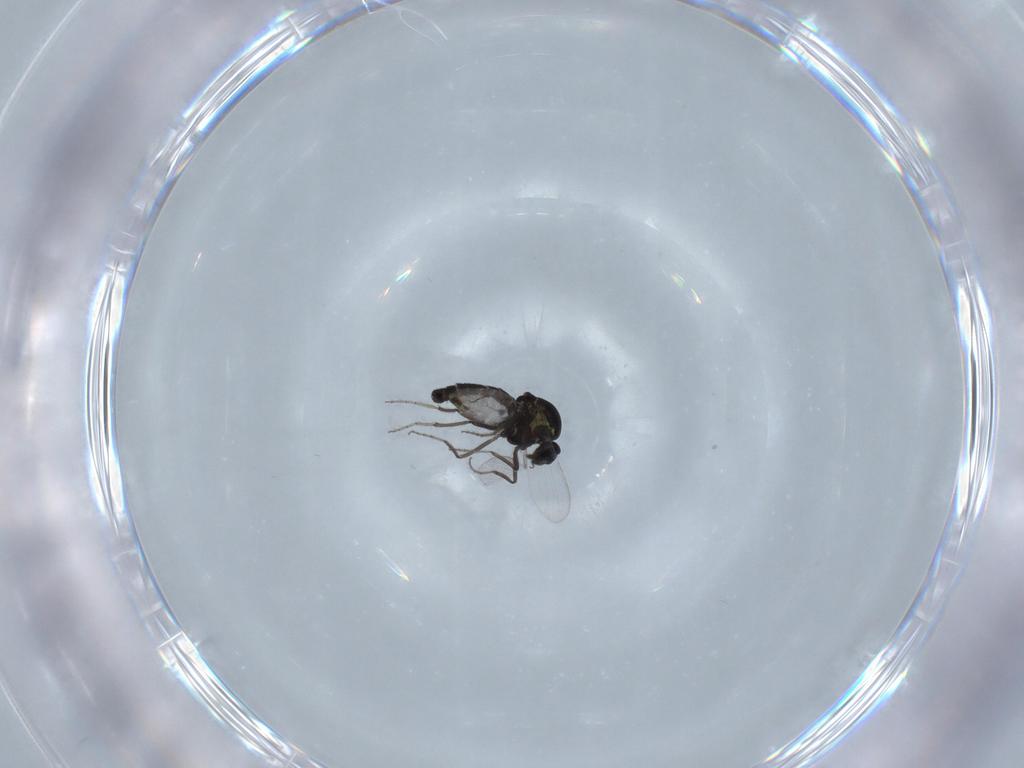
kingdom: Animalia
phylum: Arthropoda
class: Insecta
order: Diptera
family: Ceratopogonidae
